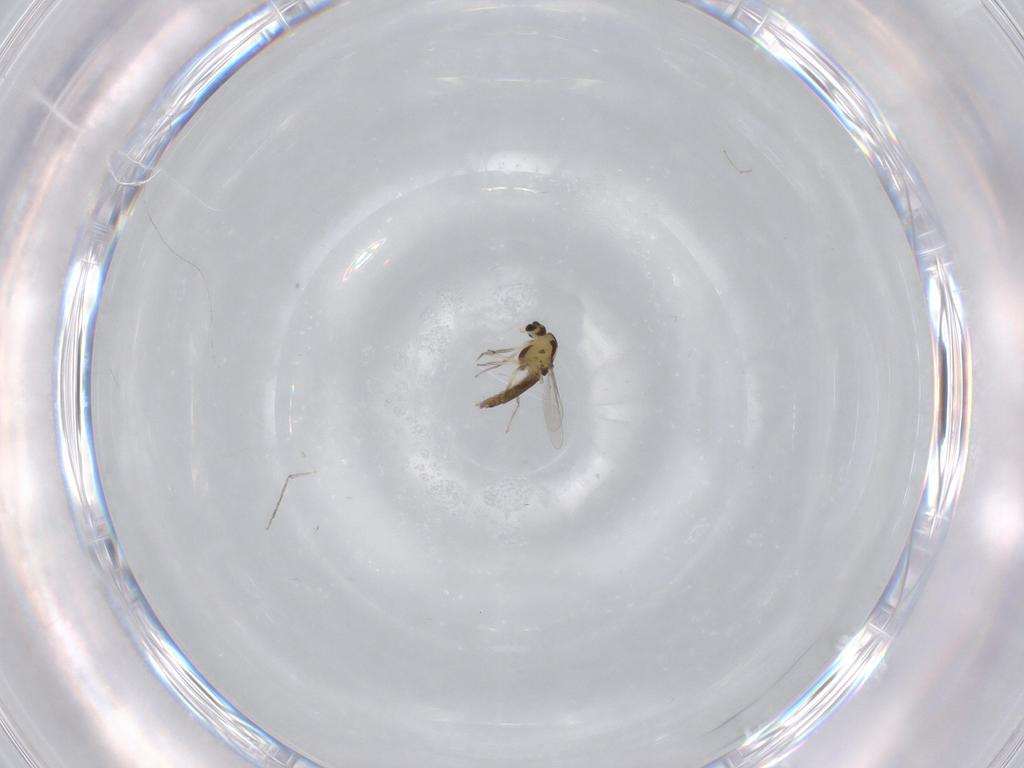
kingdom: Animalia
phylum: Arthropoda
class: Insecta
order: Diptera
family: Chironomidae
